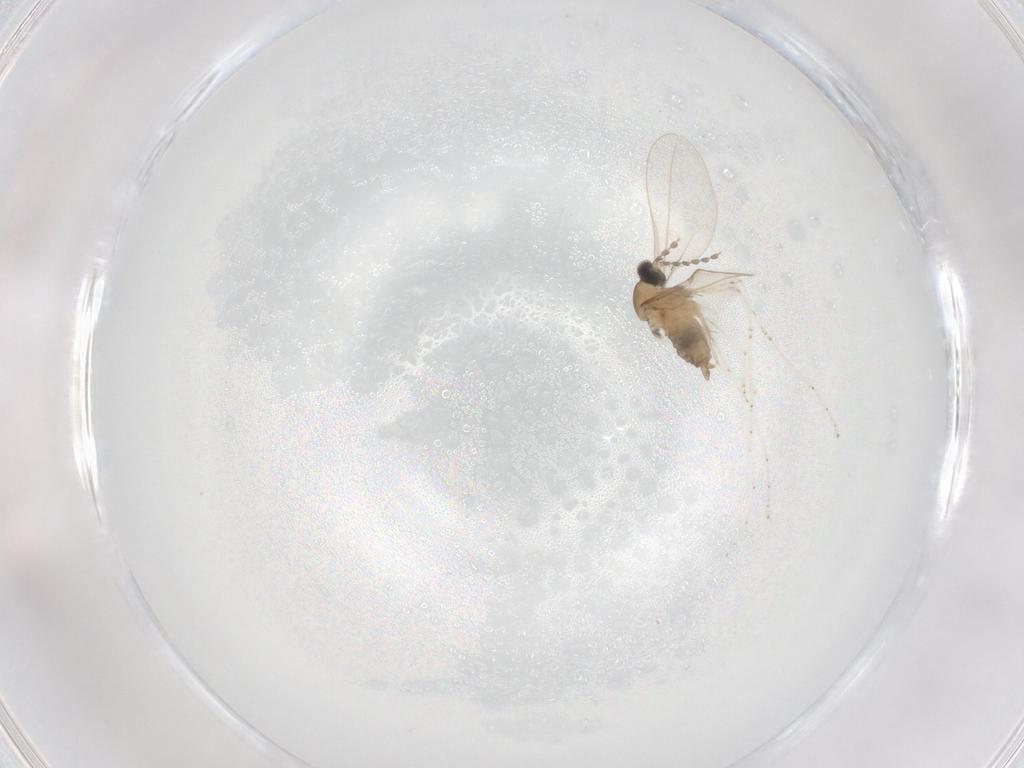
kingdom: Animalia
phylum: Arthropoda
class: Insecta
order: Diptera
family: Cecidomyiidae
